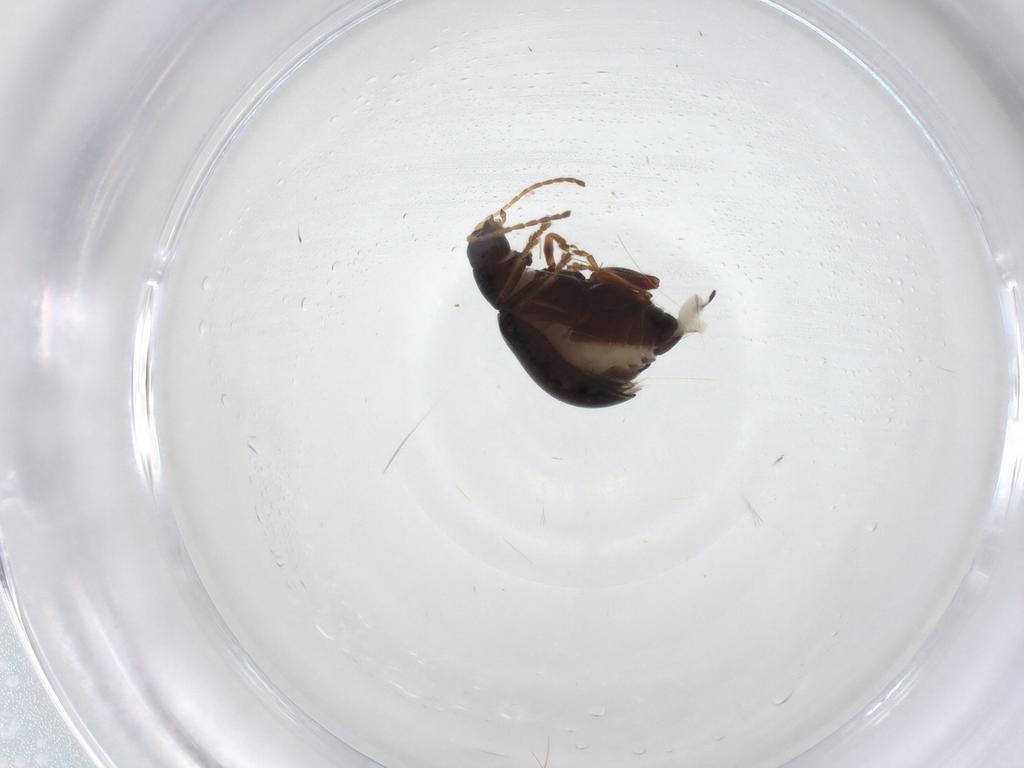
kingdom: Animalia
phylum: Arthropoda
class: Insecta
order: Coleoptera
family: Chrysomelidae
